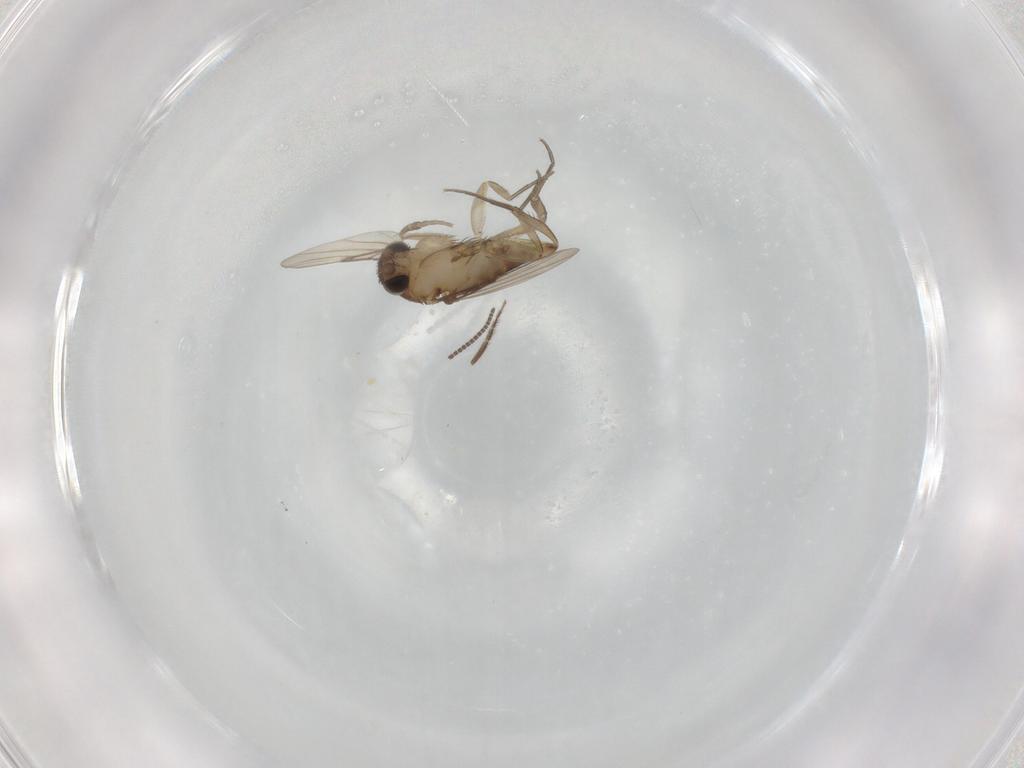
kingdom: Animalia
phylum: Arthropoda
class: Insecta
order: Diptera
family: Phoridae
